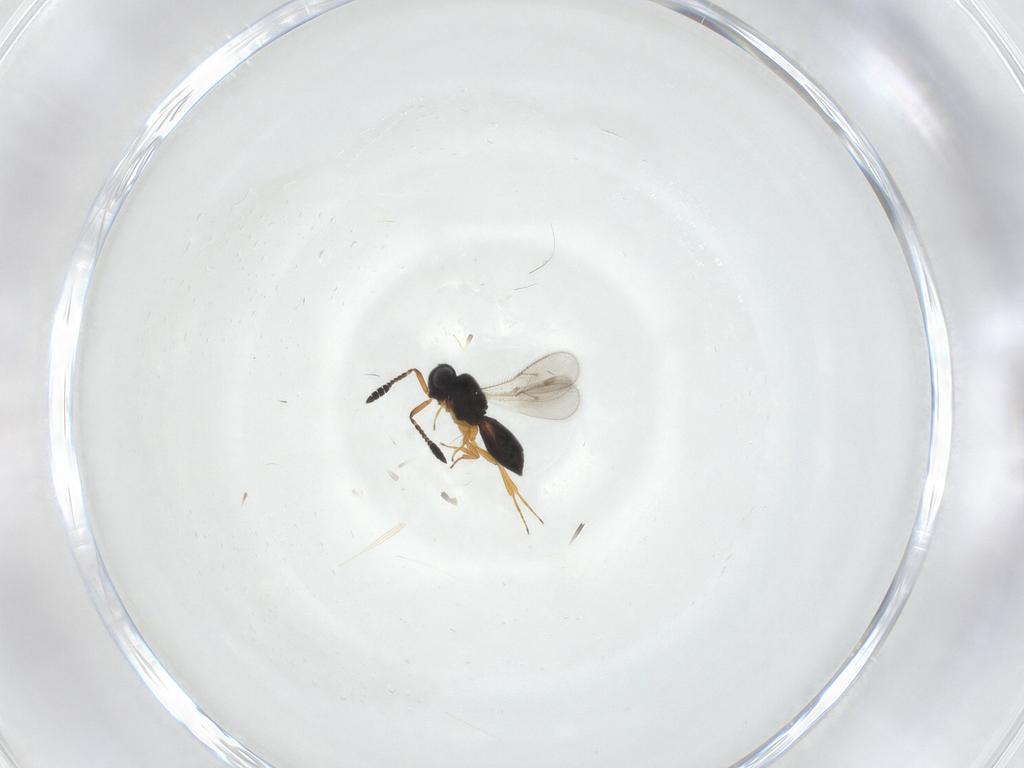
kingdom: Animalia
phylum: Arthropoda
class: Insecta
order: Hymenoptera
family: Scelionidae
